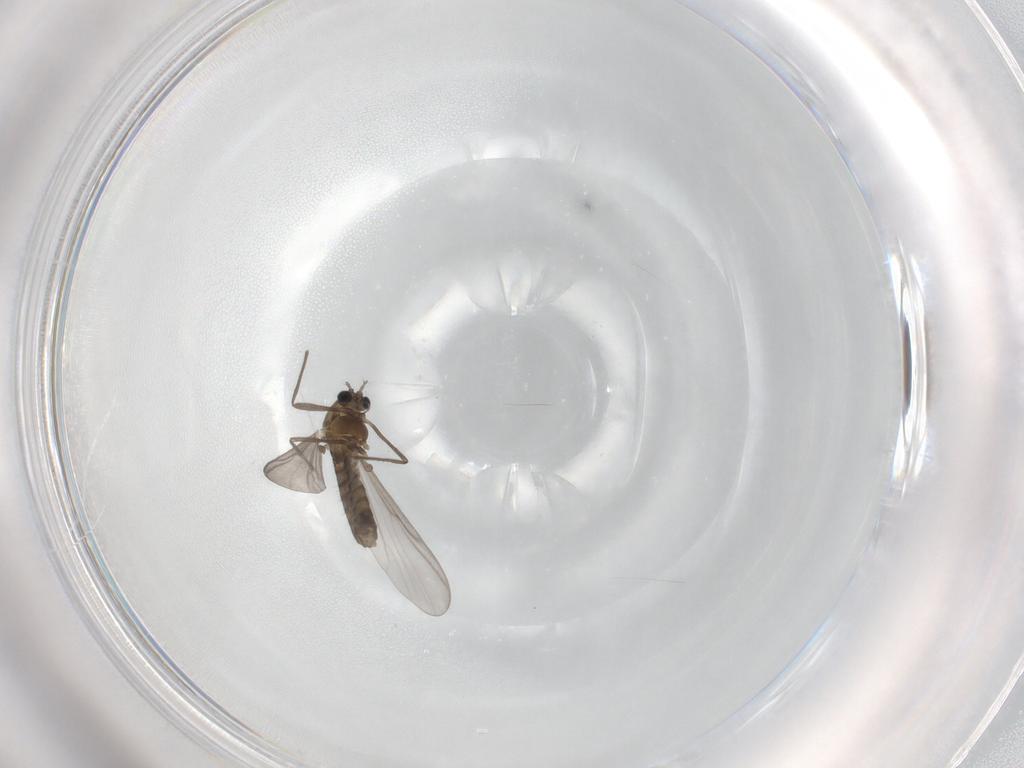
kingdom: Animalia
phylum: Arthropoda
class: Insecta
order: Diptera
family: Chironomidae
